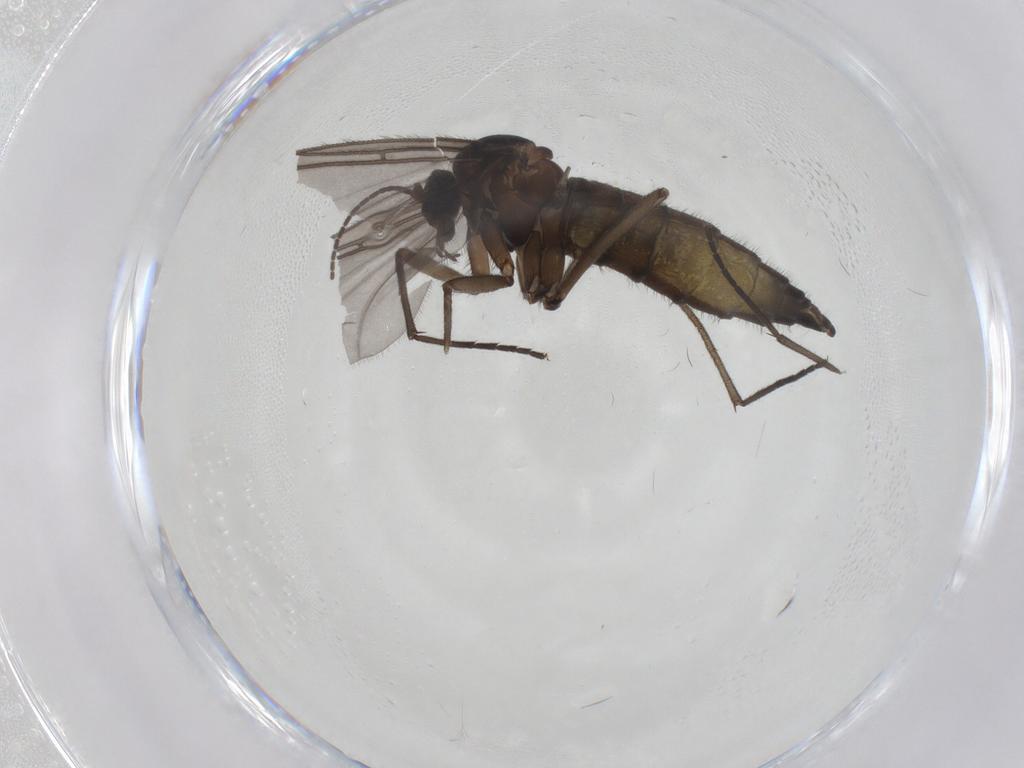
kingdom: Animalia
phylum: Arthropoda
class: Insecta
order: Diptera
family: Sciaridae
